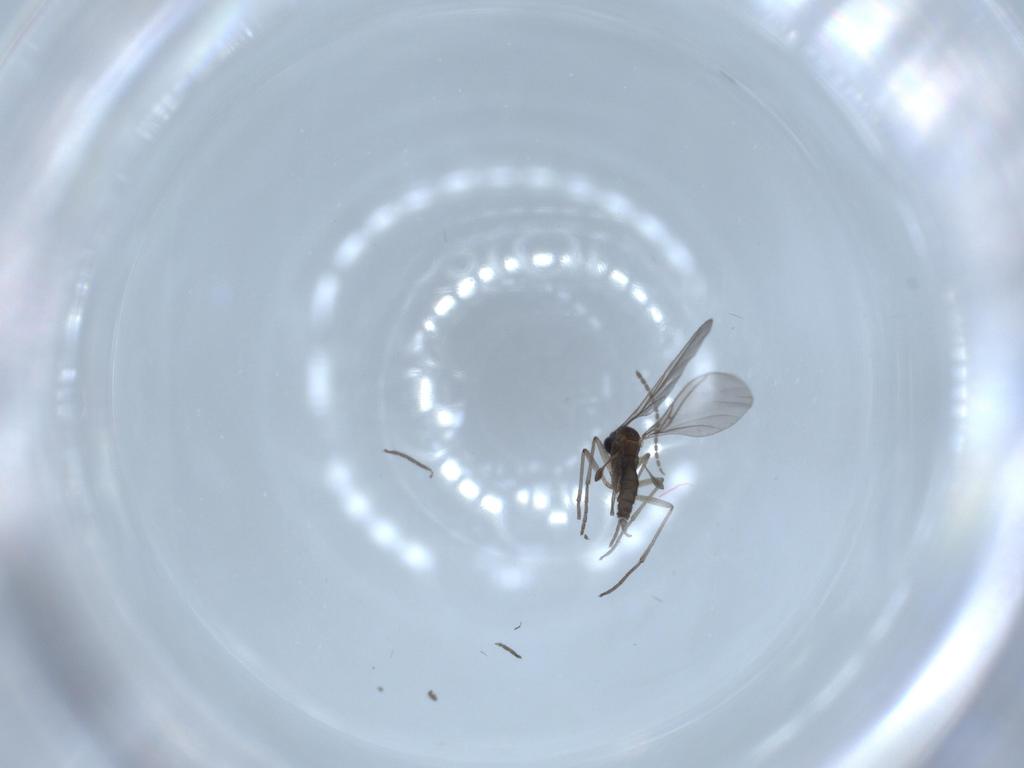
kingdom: Animalia
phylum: Arthropoda
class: Insecta
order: Diptera
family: Sciaridae
